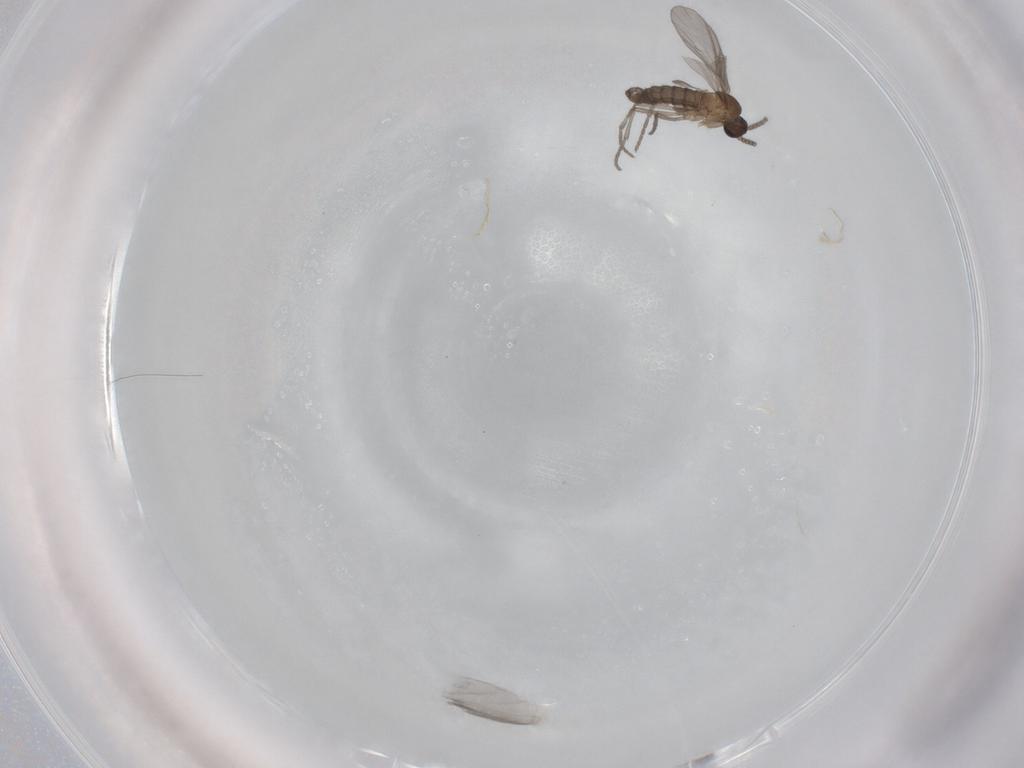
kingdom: Animalia
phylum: Arthropoda
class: Insecta
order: Diptera
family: Sciaridae
